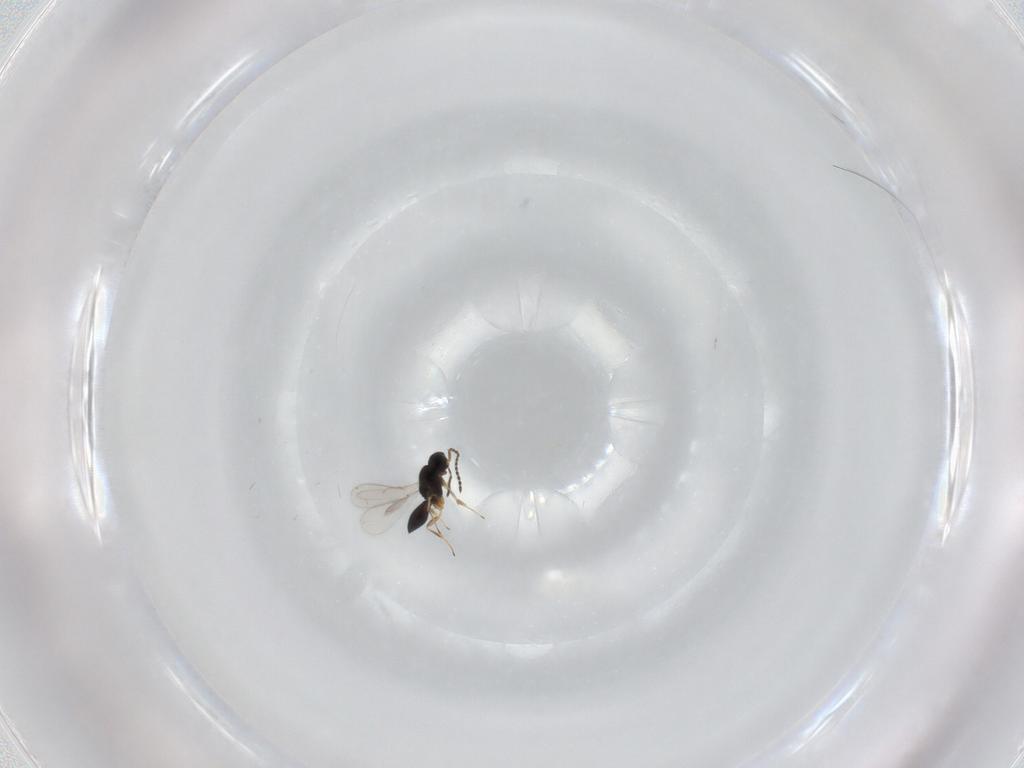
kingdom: Animalia
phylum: Arthropoda
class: Insecta
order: Hymenoptera
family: Scelionidae
